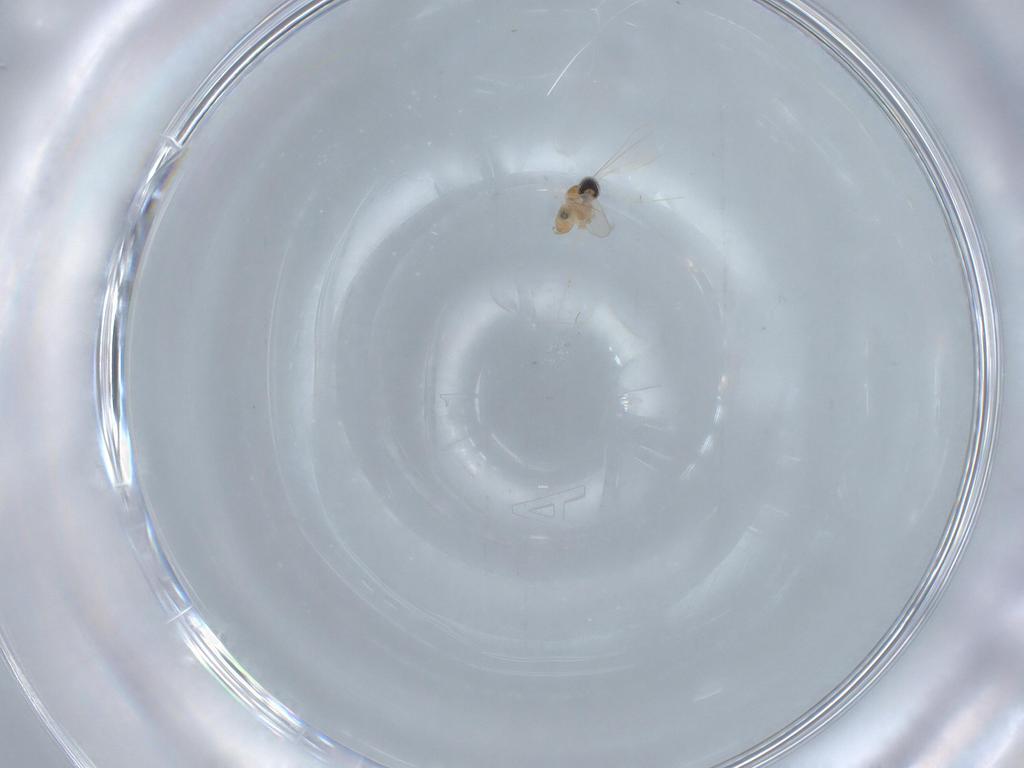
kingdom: Animalia
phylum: Arthropoda
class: Insecta
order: Diptera
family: Cecidomyiidae
